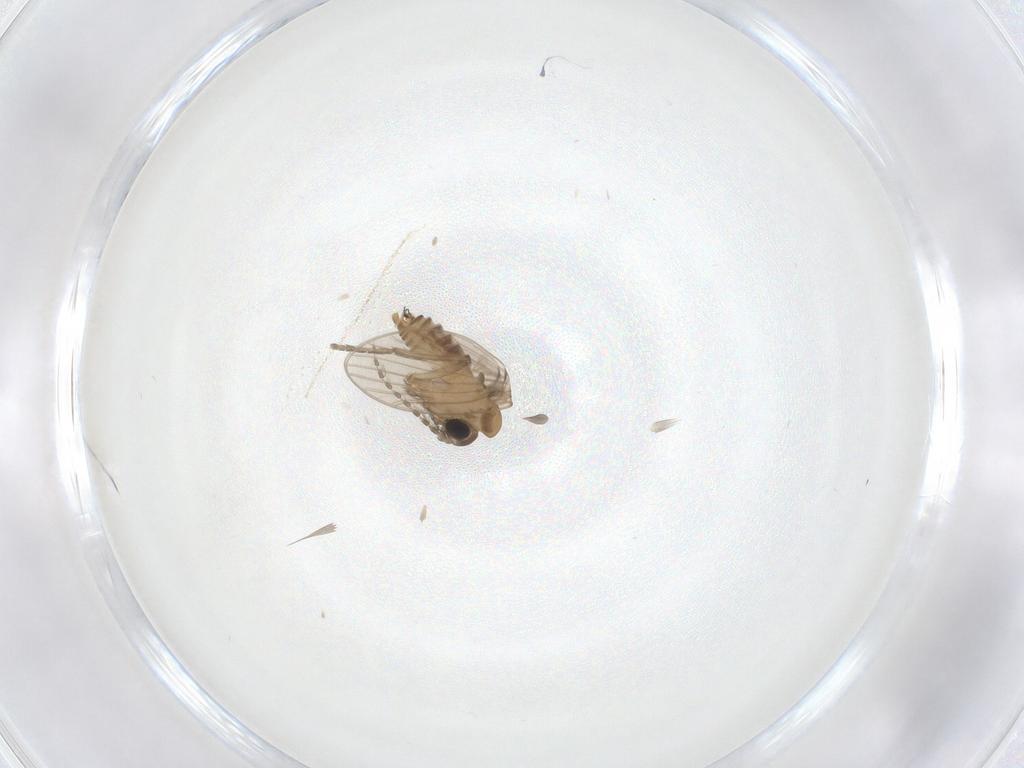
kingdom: Animalia
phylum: Arthropoda
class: Insecta
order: Diptera
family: Psychodidae
